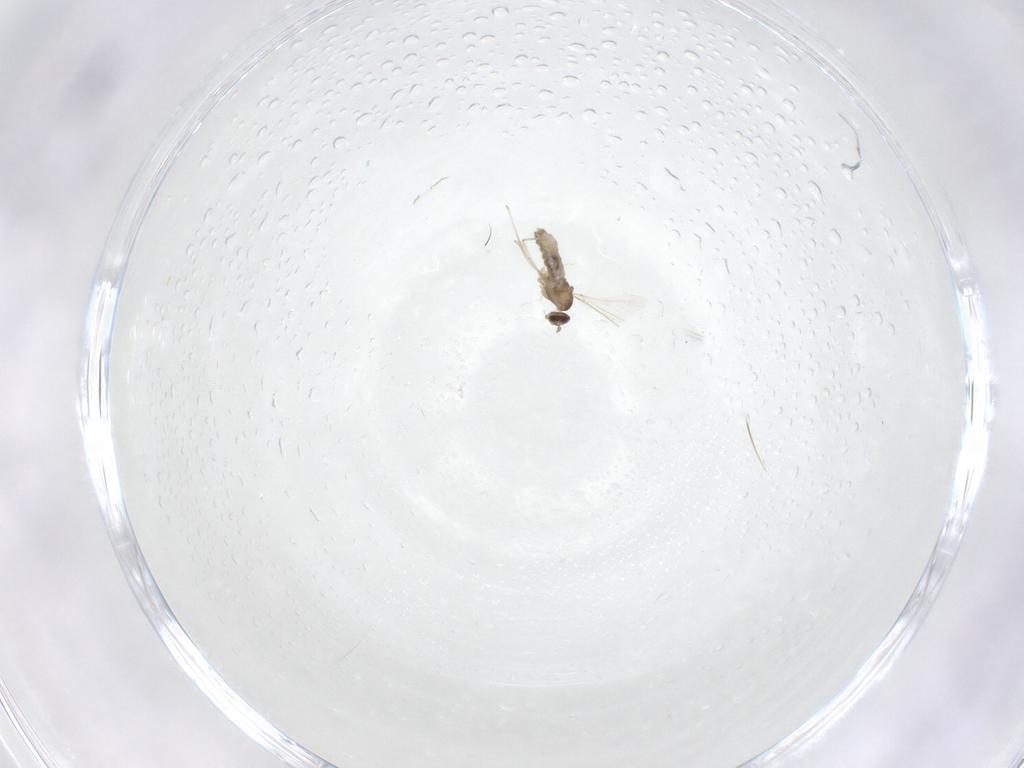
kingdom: Animalia
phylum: Arthropoda
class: Insecta
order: Diptera
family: Cecidomyiidae
